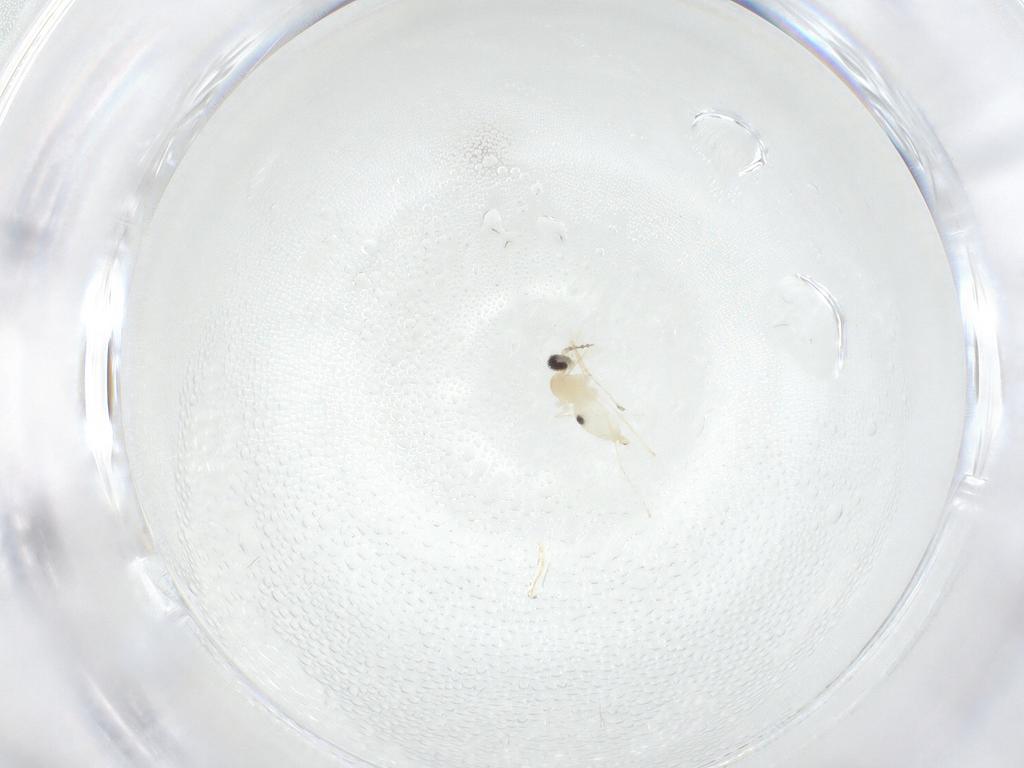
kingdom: Animalia
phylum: Arthropoda
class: Insecta
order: Diptera
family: Cecidomyiidae
